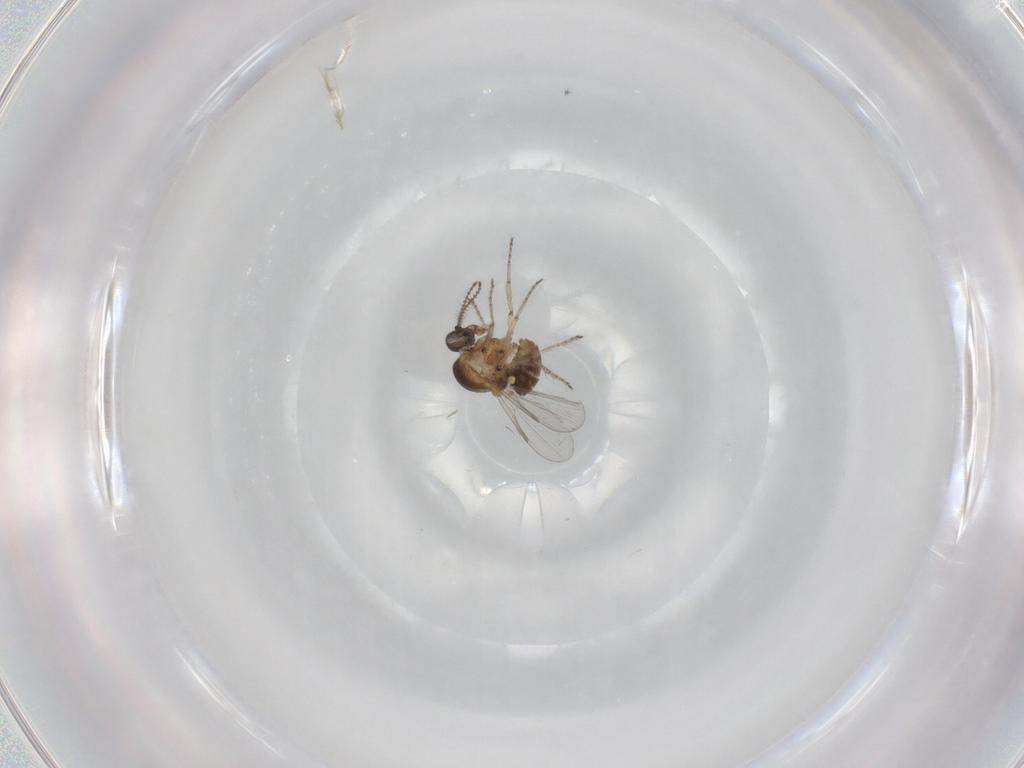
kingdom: Animalia
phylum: Arthropoda
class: Insecta
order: Diptera
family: Ceratopogonidae
